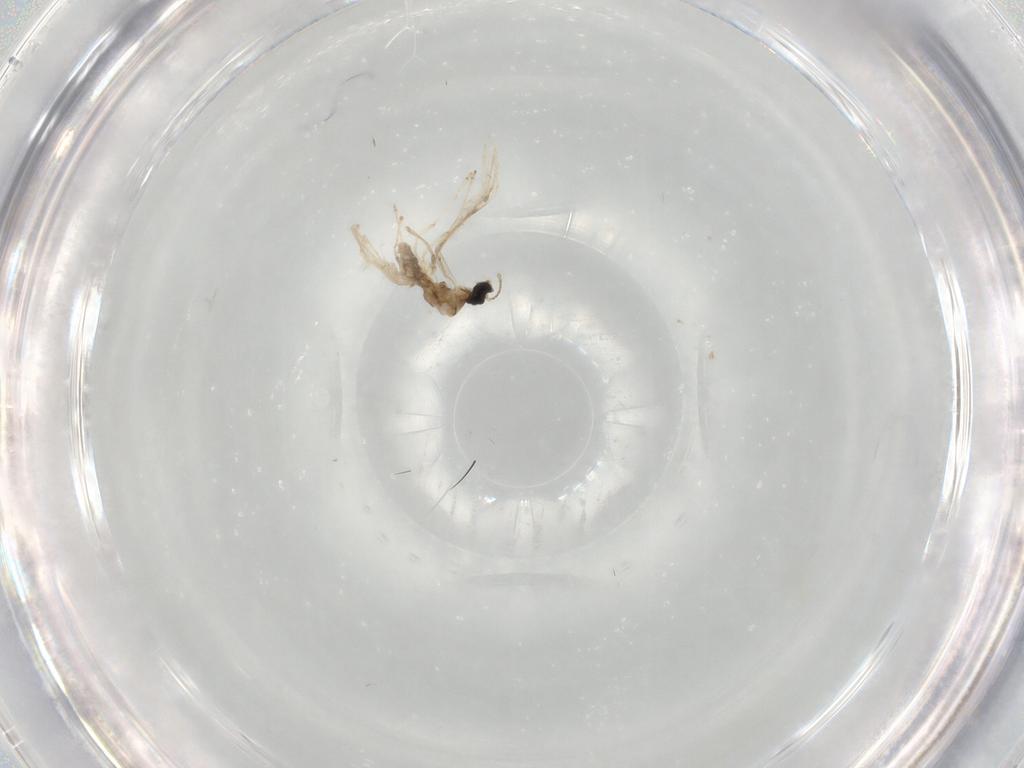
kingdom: Animalia
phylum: Arthropoda
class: Insecta
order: Diptera
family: Cecidomyiidae
